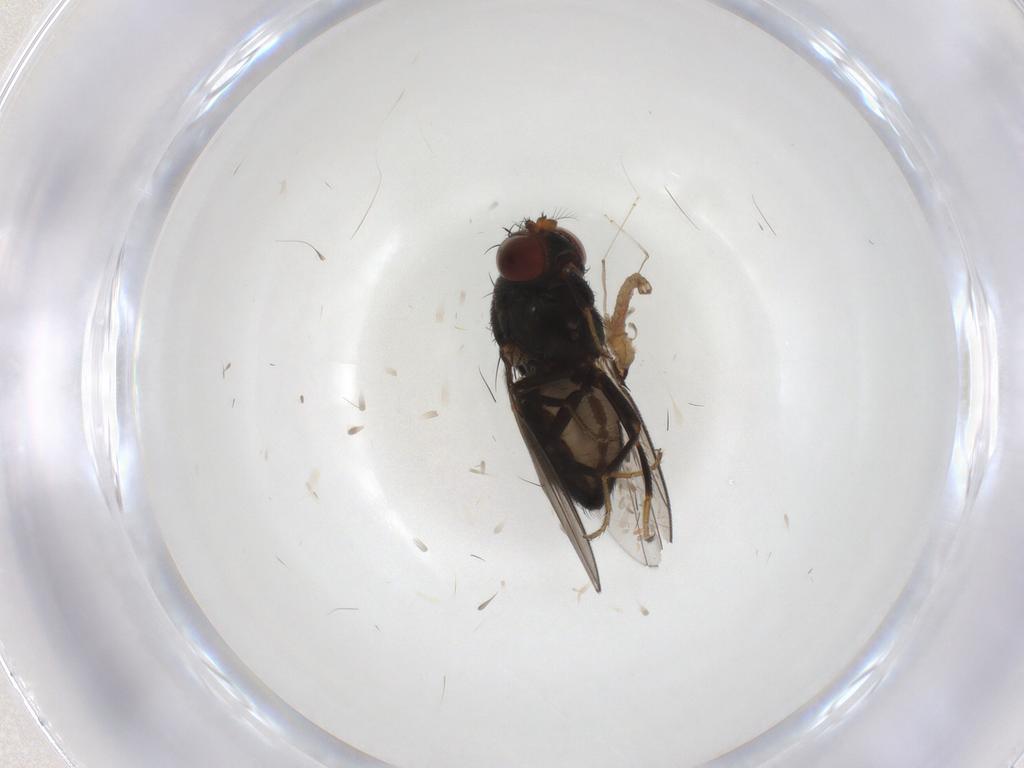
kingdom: Animalia
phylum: Arthropoda
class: Insecta
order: Diptera
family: Cecidomyiidae
